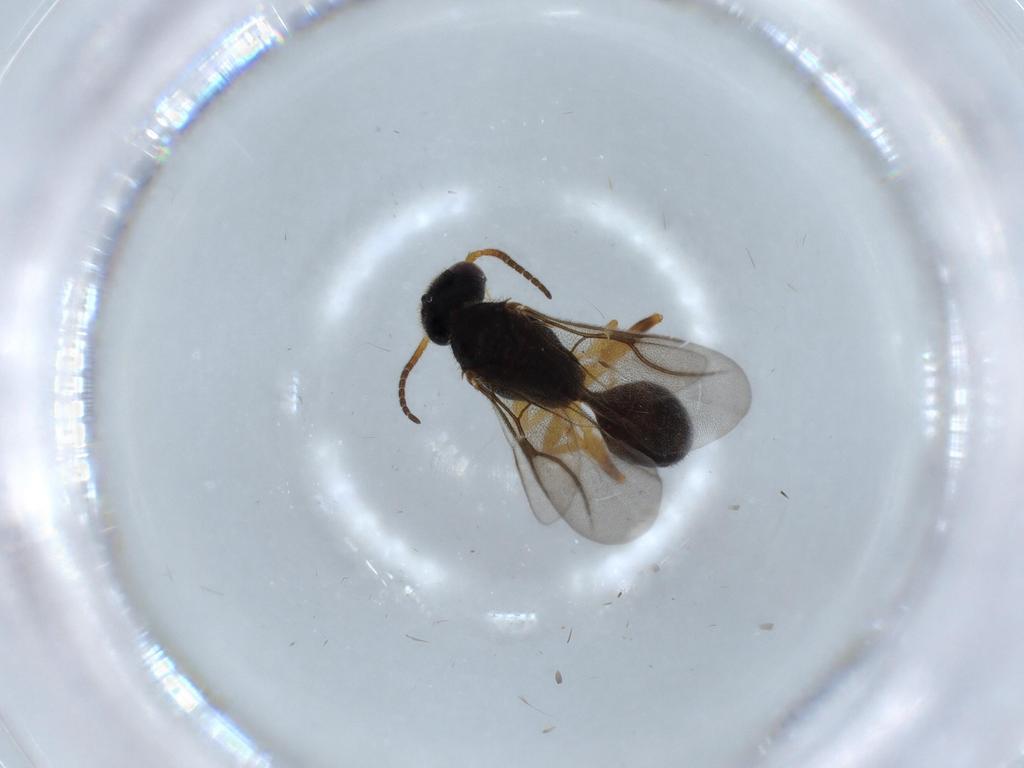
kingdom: Animalia
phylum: Arthropoda
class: Insecta
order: Hymenoptera
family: Bethylidae
